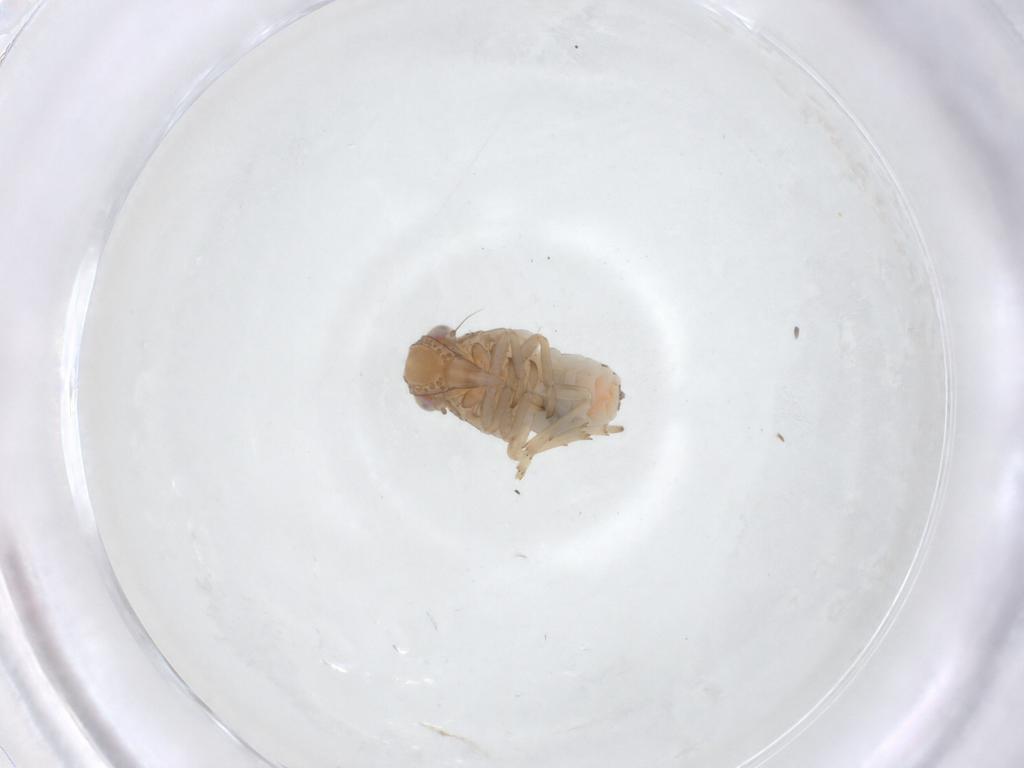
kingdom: Animalia
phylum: Arthropoda
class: Insecta
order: Hemiptera
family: Tropiduchidae
